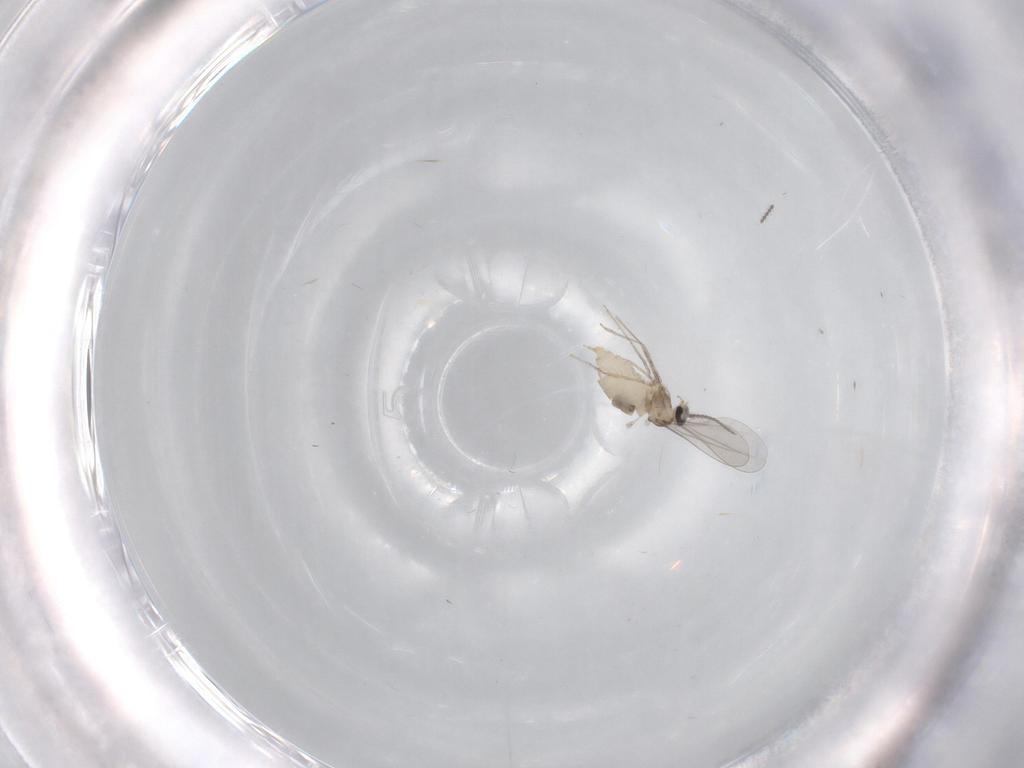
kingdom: Animalia
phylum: Arthropoda
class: Insecta
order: Diptera
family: Cecidomyiidae
